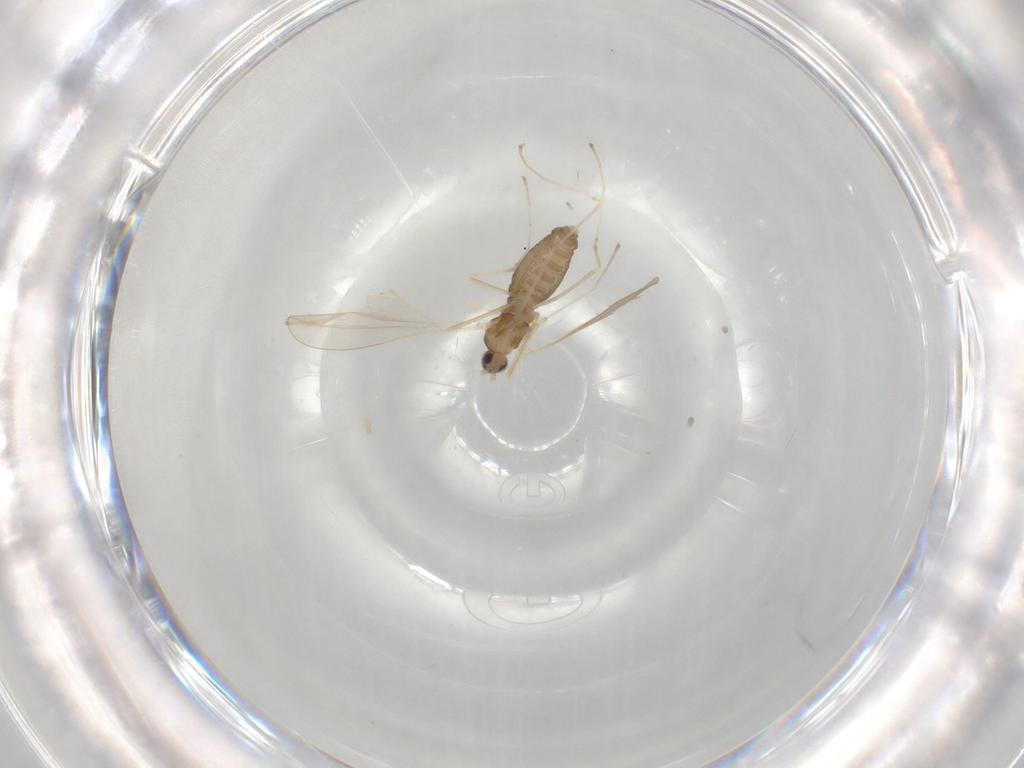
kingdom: Animalia
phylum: Arthropoda
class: Insecta
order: Diptera
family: Cecidomyiidae
